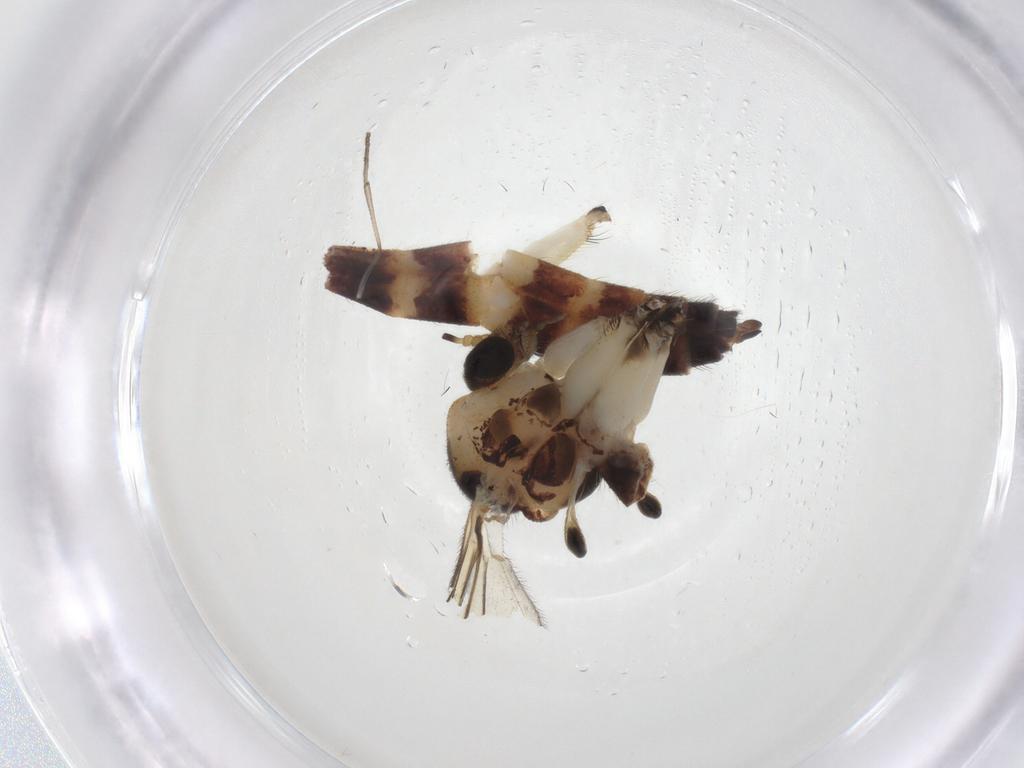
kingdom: Animalia
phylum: Arthropoda
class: Insecta
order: Diptera
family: Mycetophilidae
